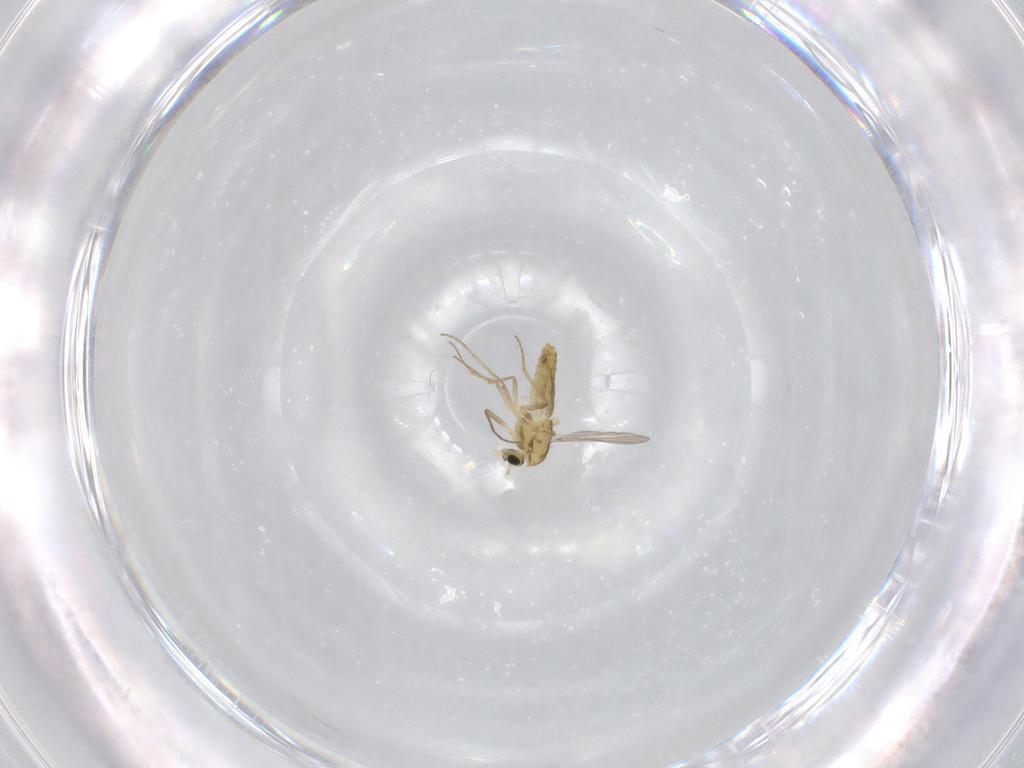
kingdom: Animalia
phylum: Arthropoda
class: Insecta
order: Diptera
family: Chironomidae
